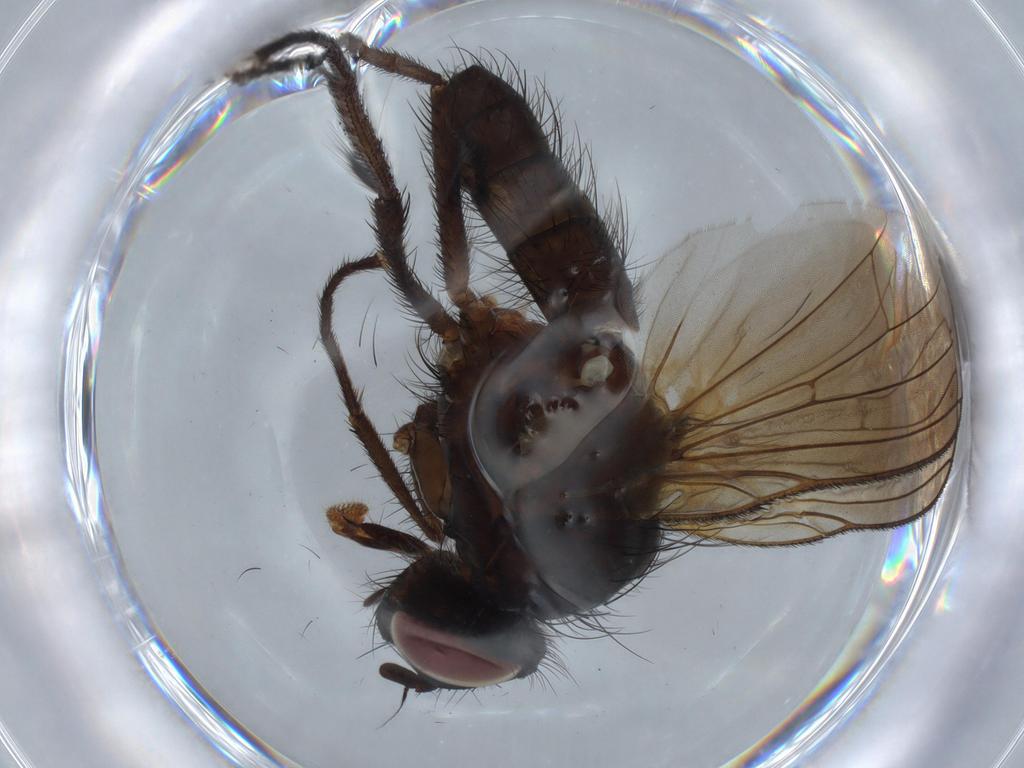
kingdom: Animalia
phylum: Arthropoda
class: Insecta
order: Diptera
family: Anthomyiidae
